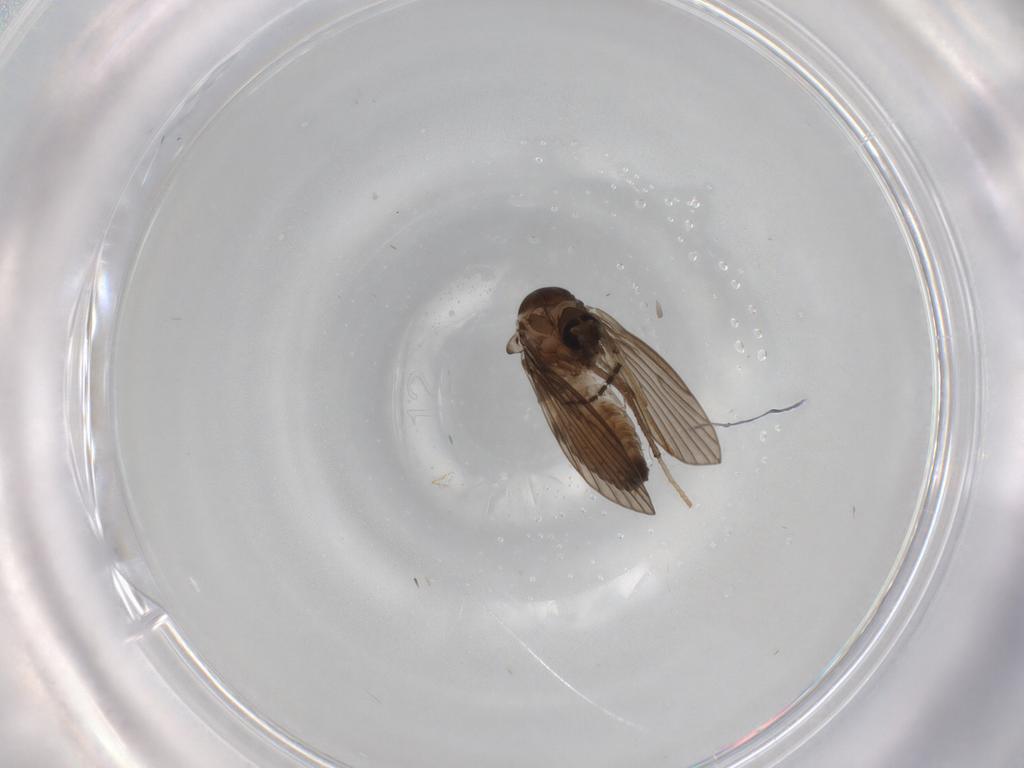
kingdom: Animalia
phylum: Arthropoda
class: Insecta
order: Diptera
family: Psychodidae
